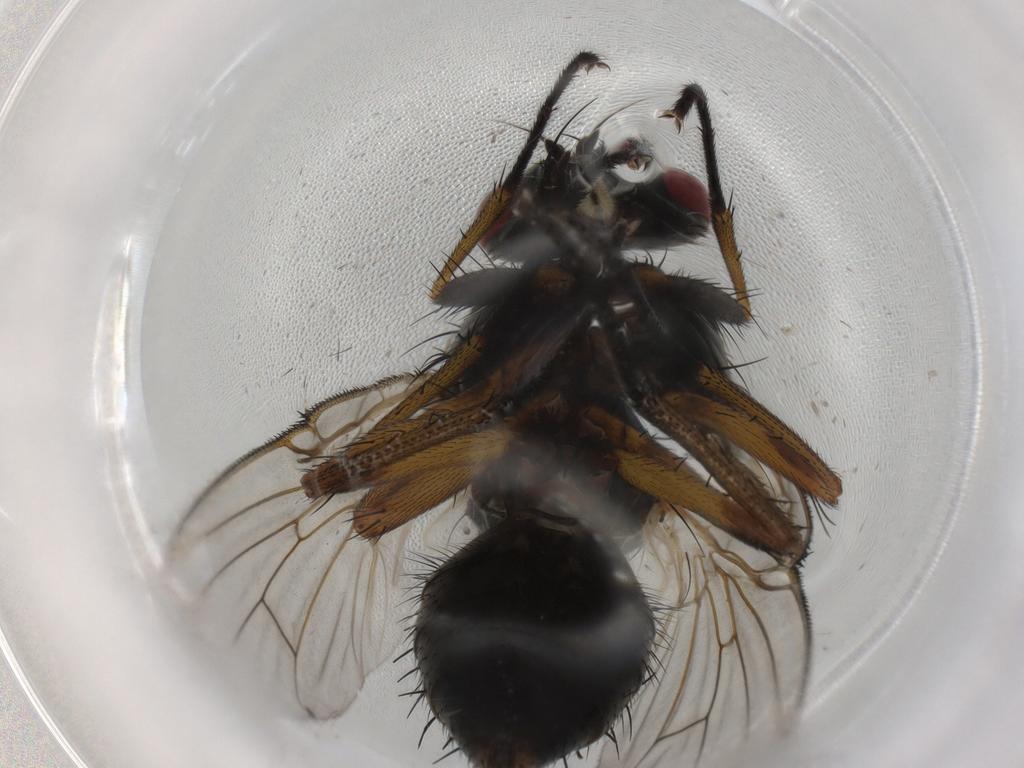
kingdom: Animalia
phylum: Arthropoda
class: Insecta
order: Diptera
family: Muscidae
